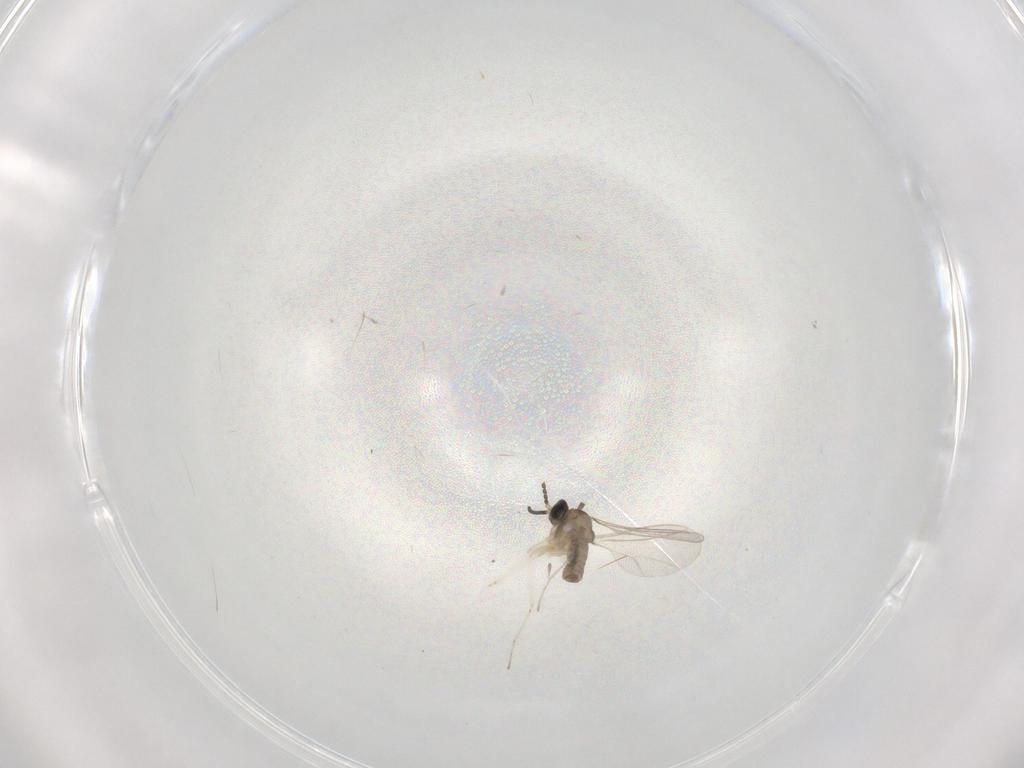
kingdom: Animalia
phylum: Arthropoda
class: Insecta
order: Diptera
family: Cecidomyiidae
